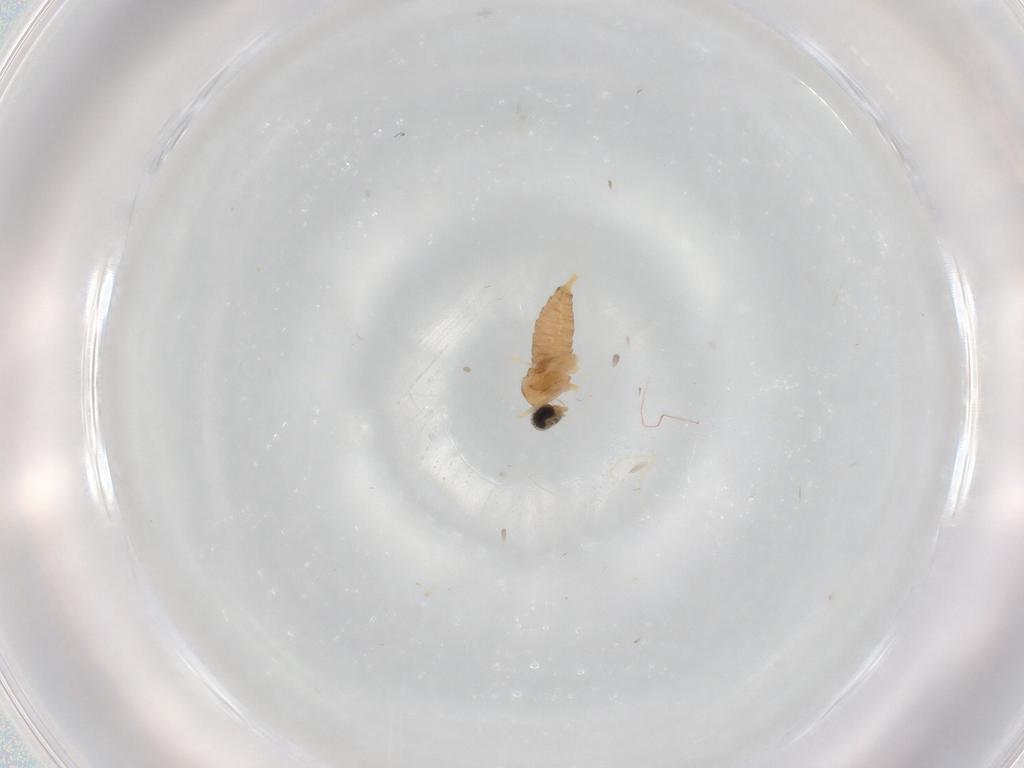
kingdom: Animalia
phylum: Arthropoda
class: Insecta
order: Diptera
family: Cecidomyiidae
